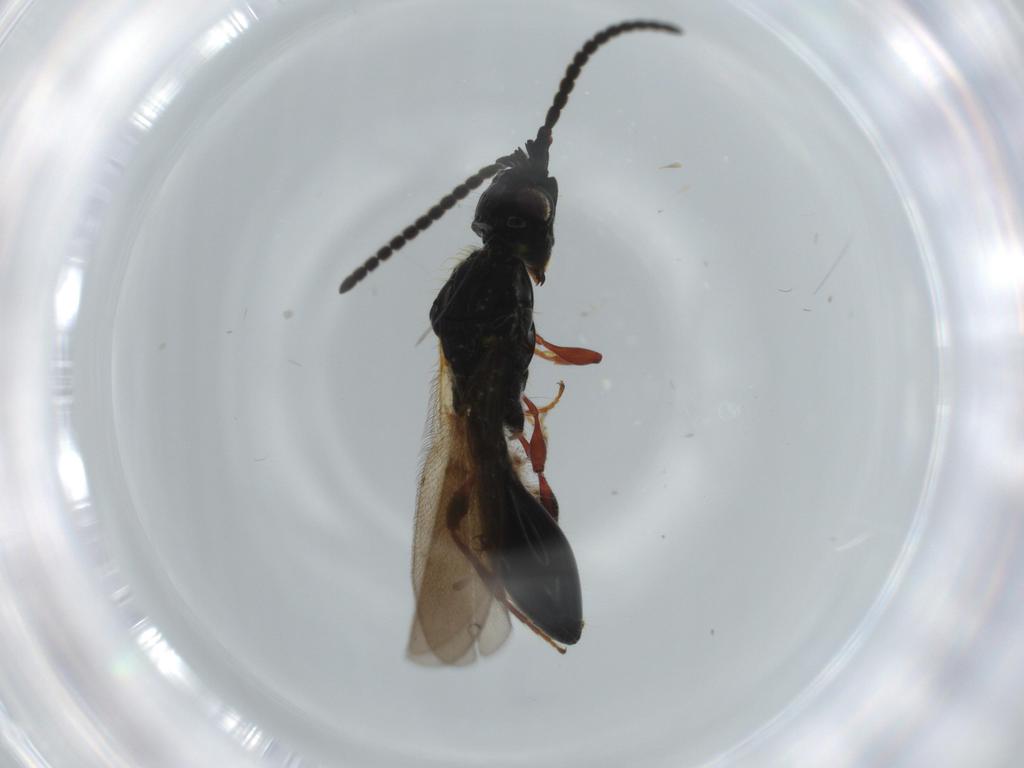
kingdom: Animalia
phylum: Arthropoda
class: Insecta
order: Hymenoptera
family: Diapriidae
